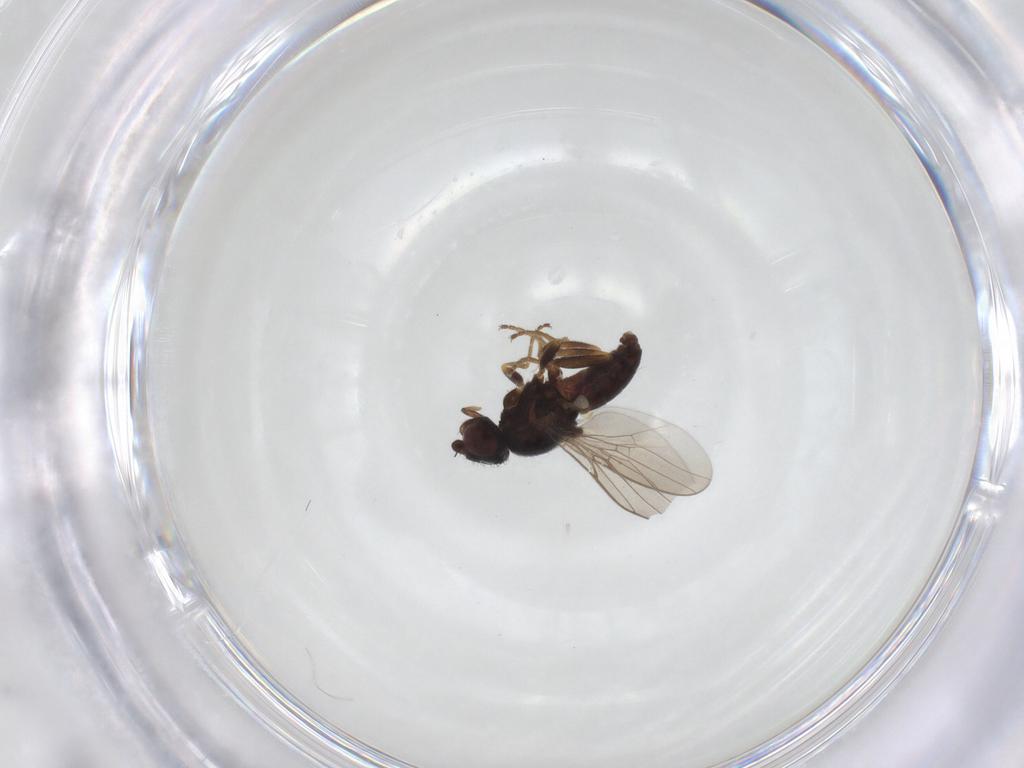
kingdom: Animalia
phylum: Arthropoda
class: Insecta
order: Diptera
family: Chloropidae
